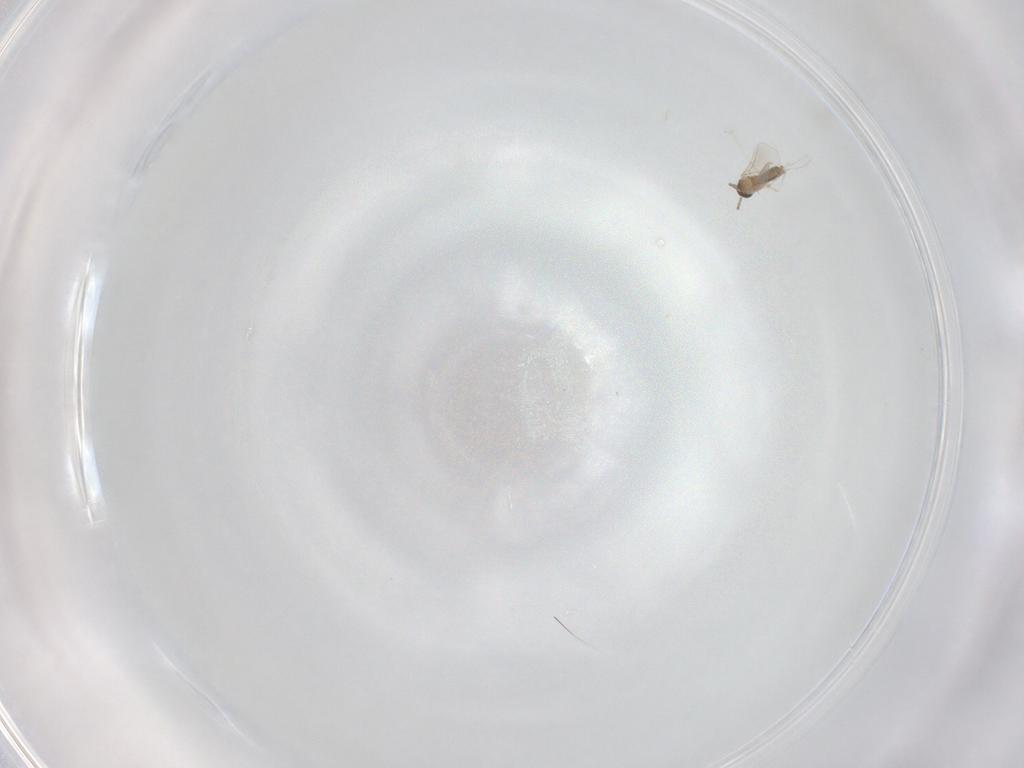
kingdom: Animalia
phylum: Arthropoda
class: Insecta
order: Diptera
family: Cecidomyiidae
